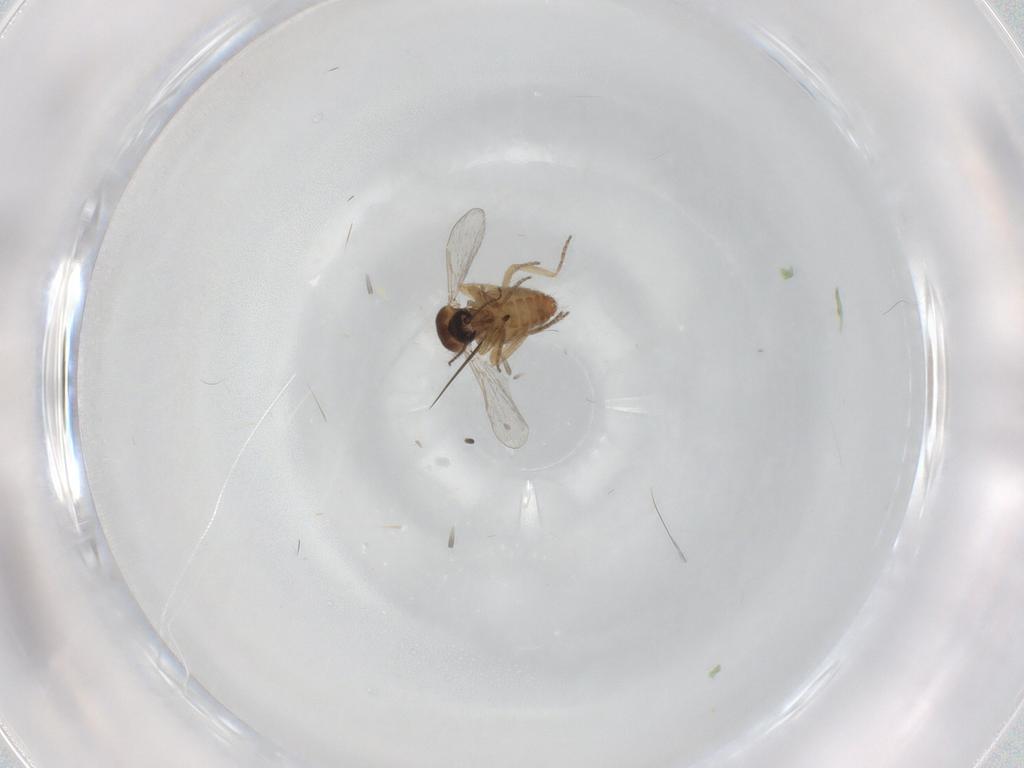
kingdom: Animalia
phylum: Arthropoda
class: Insecta
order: Diptera
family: Ceratopogonidae
